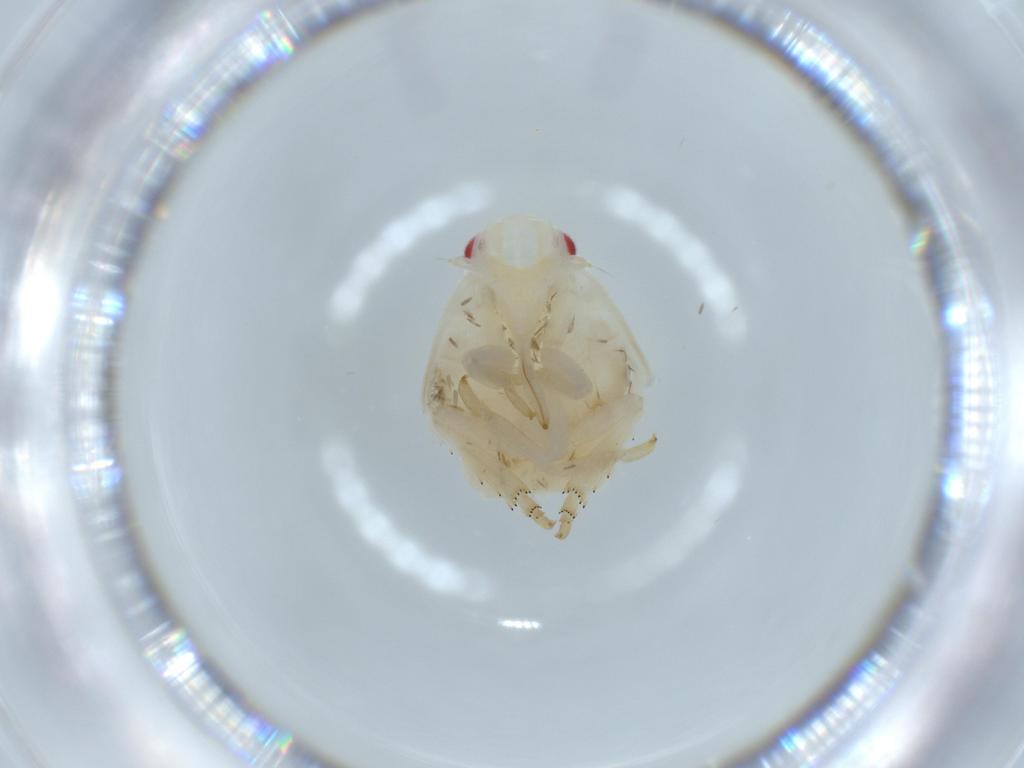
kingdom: Animalia
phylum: Arthropoda
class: Insecta
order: Hemiptera
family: Flatidae
